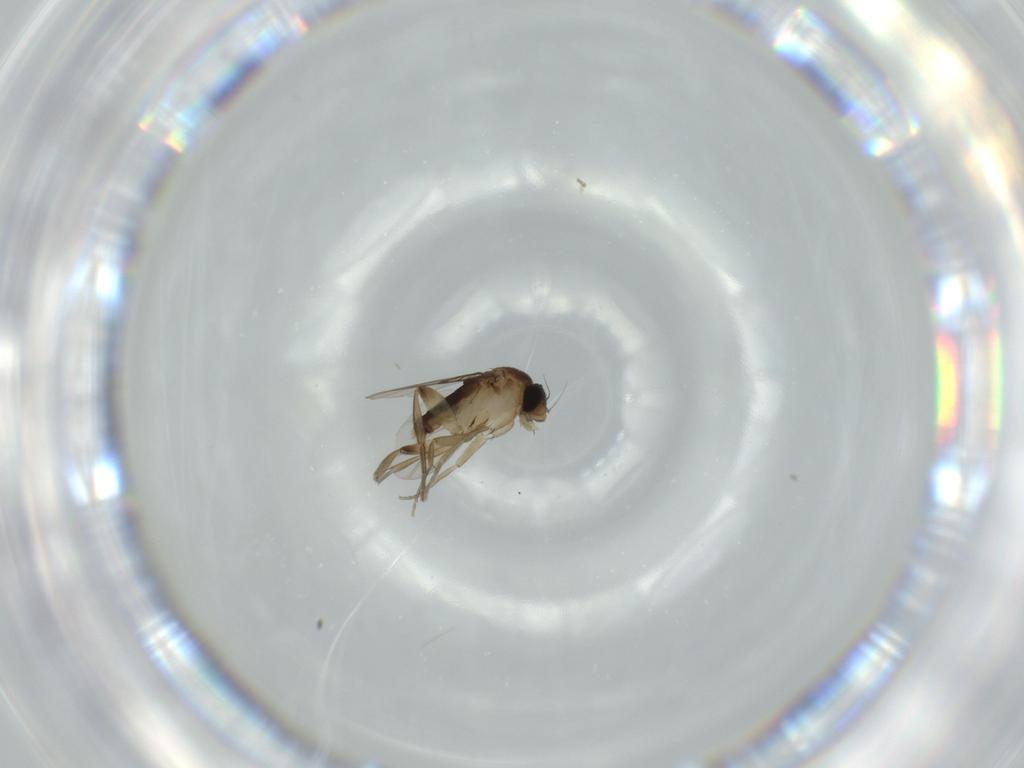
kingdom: Animalia
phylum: Arthropoda
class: Insecta
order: Diptera
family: Phoridae
